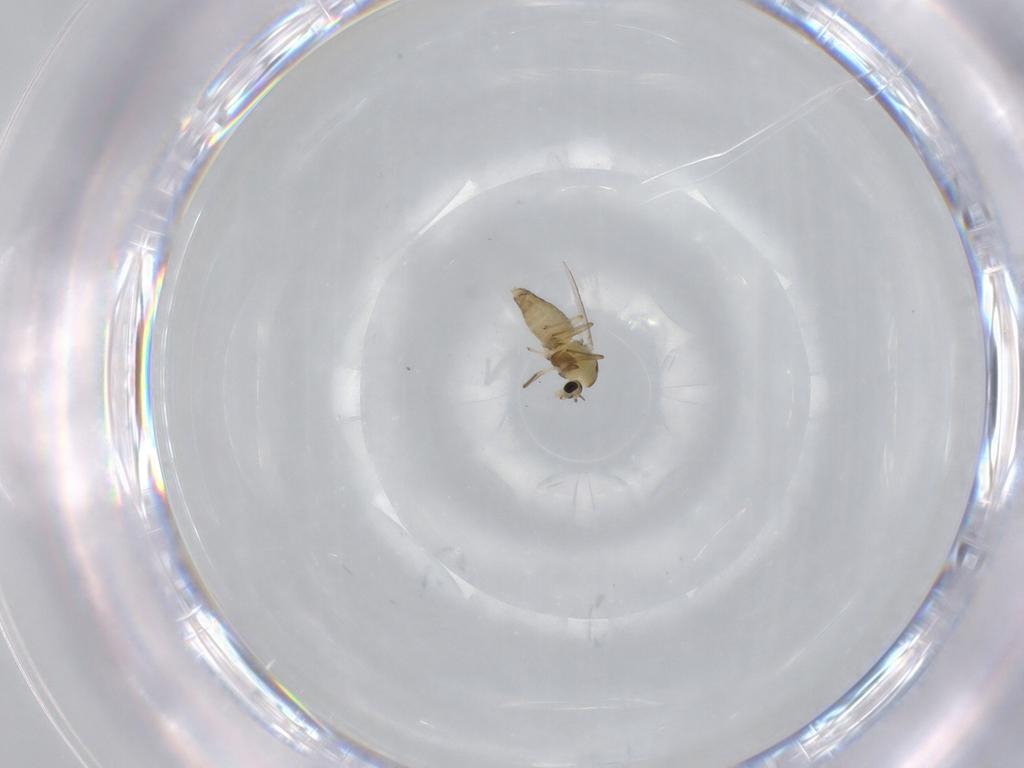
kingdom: Animalia
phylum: Arthropoda
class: Insecta
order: Diptera
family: Chironomidae
